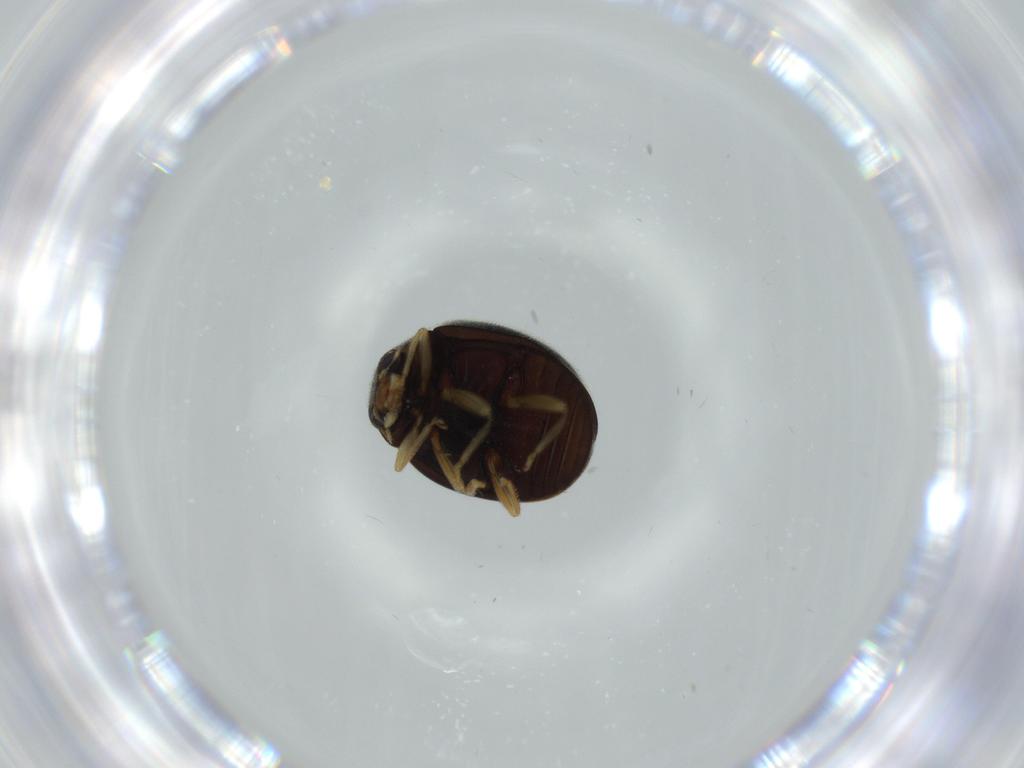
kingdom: Animalia
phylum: Arthropoda
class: Insecta
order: Coleoptera
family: Coccinellidae
